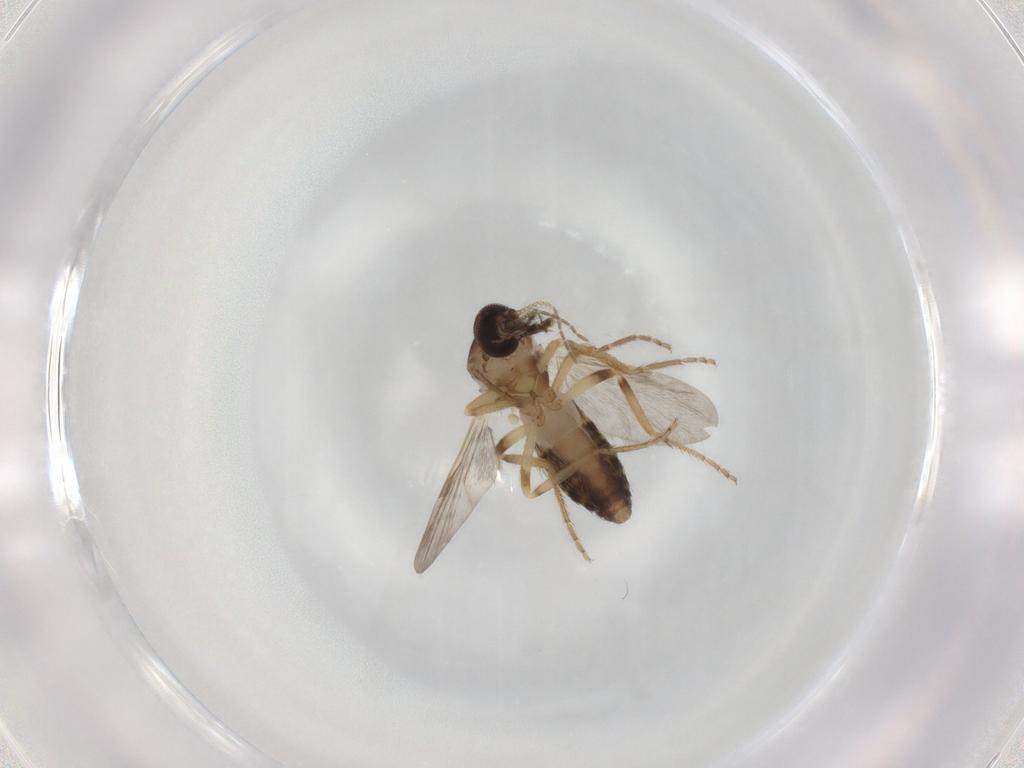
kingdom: Animalia
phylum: Arthropoda
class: Insecta
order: Diptera
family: Ceratopogonidae
